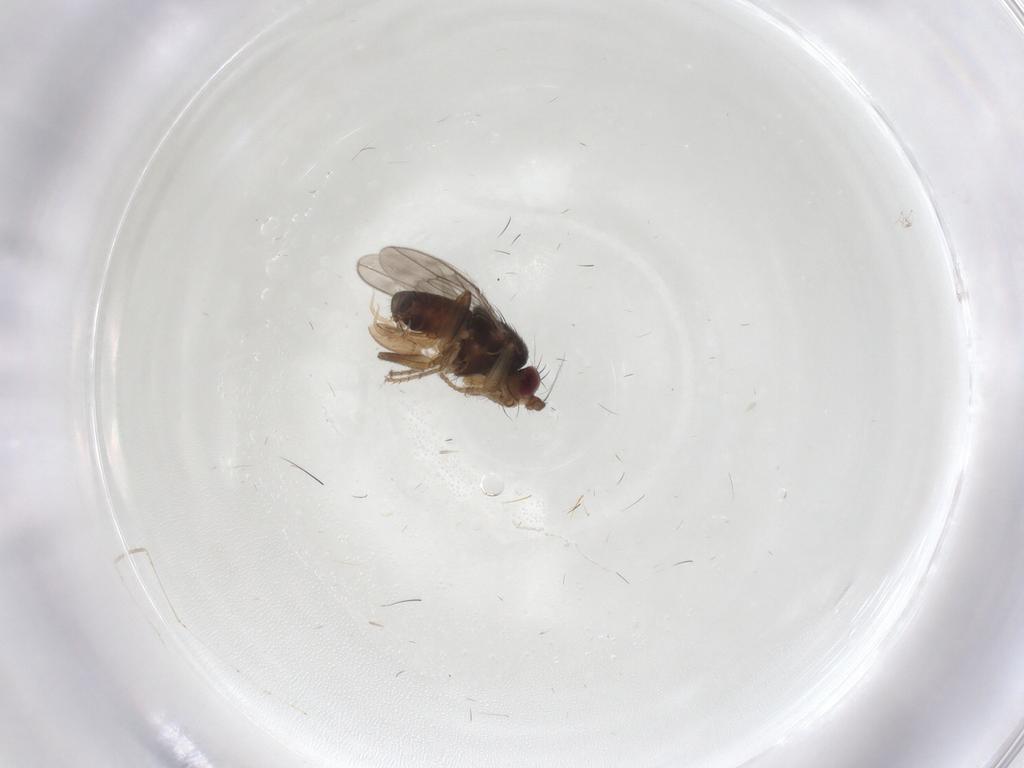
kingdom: Animalia
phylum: Arthropoda
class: Insecta
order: Diptera
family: Sphaeroceridae
